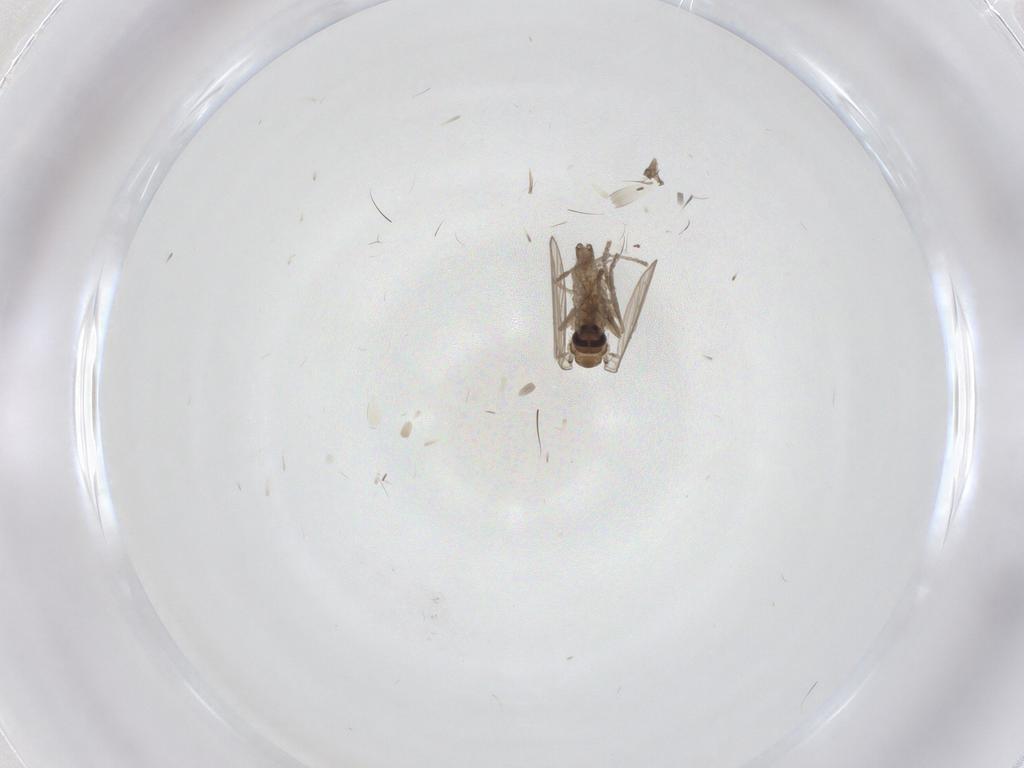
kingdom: Animalia
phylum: Arthropoda
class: Insecta
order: Diptera
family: Psychodidae
